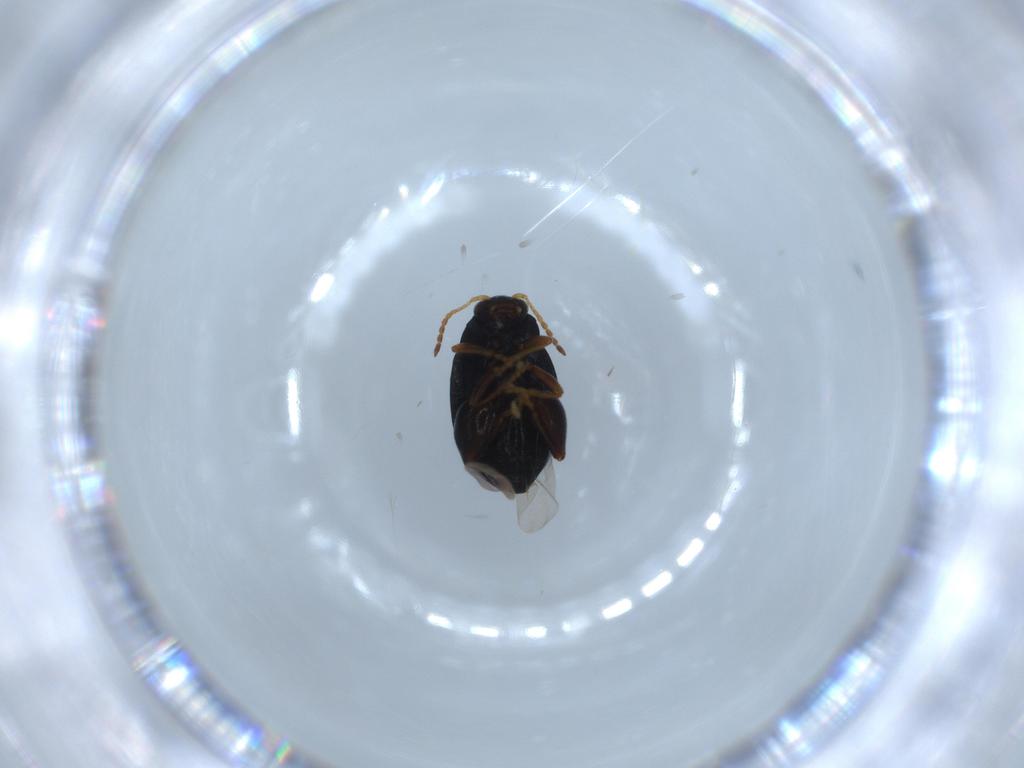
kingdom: Animalia
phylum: Arthropoda
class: Insecta
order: Coleoptera
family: Chrysomelidae
